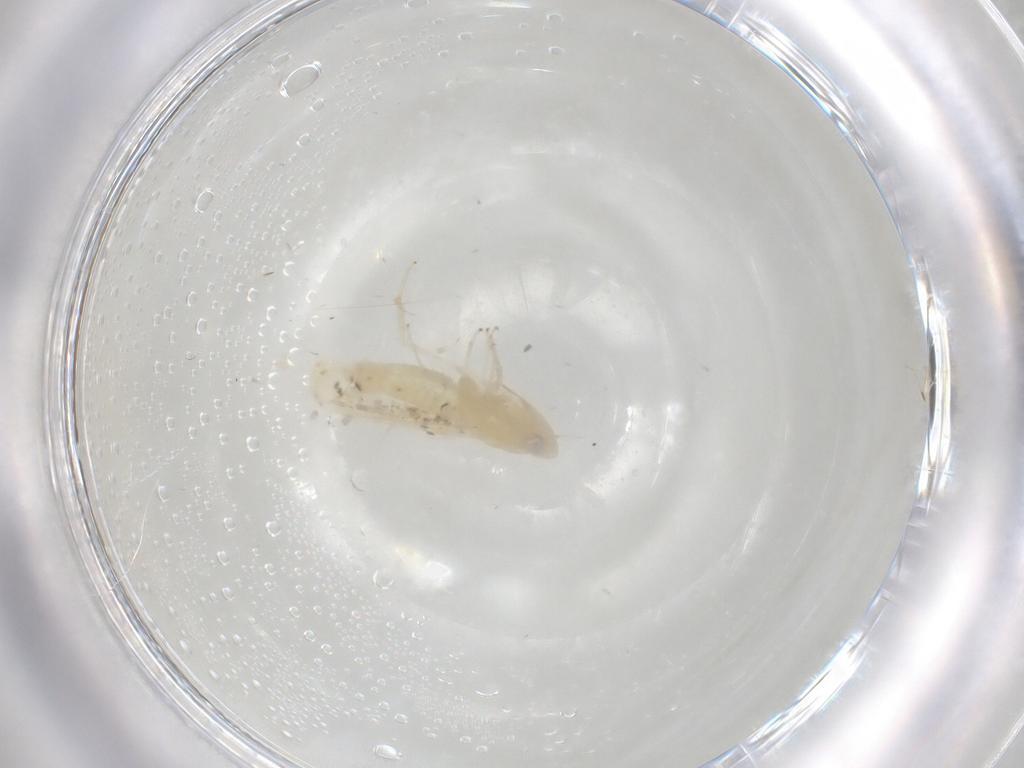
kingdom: Animalia
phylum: Arthropoda
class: Insecta
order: Hemiptera
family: Cicadellidae
